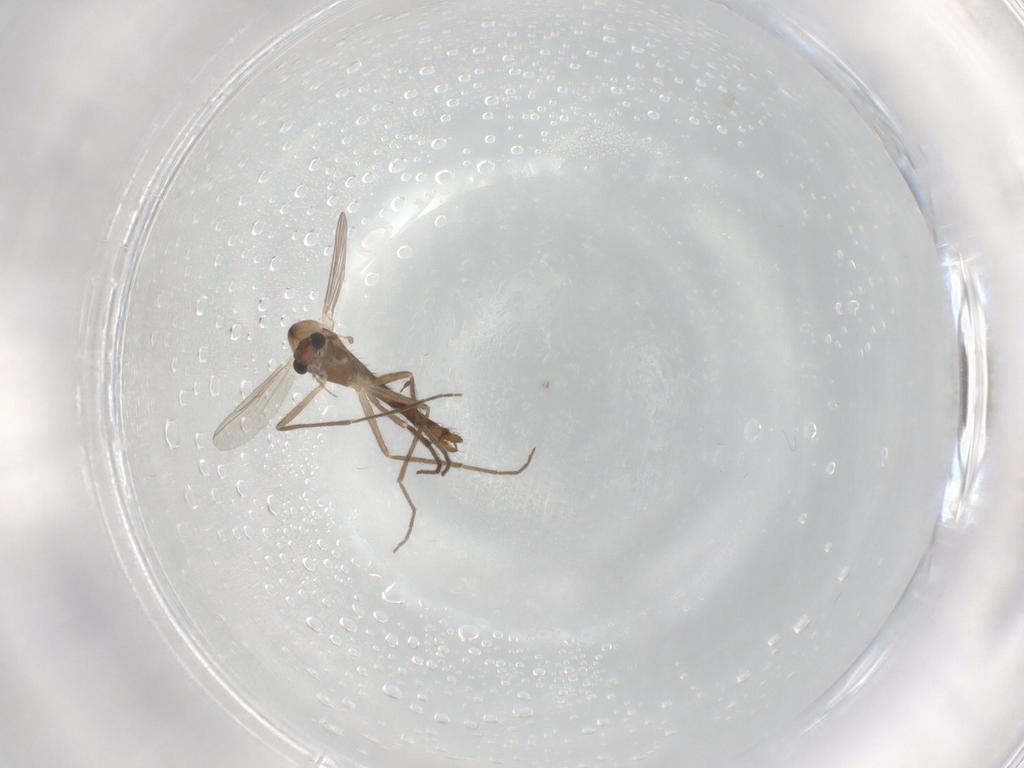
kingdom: Animalia
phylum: Arthropoda
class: Insecta
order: Diptera
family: Chironomidae
